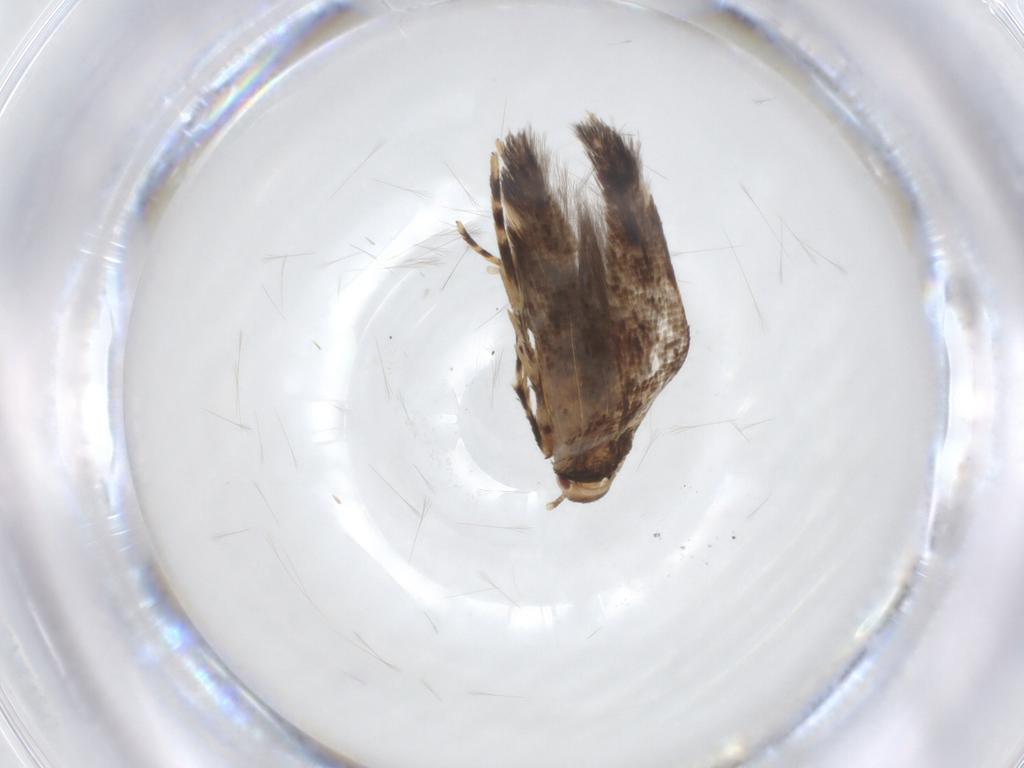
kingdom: Animalia
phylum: Arthropoda
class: Insecta
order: Lepidoptera
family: Cosmopterigidae
